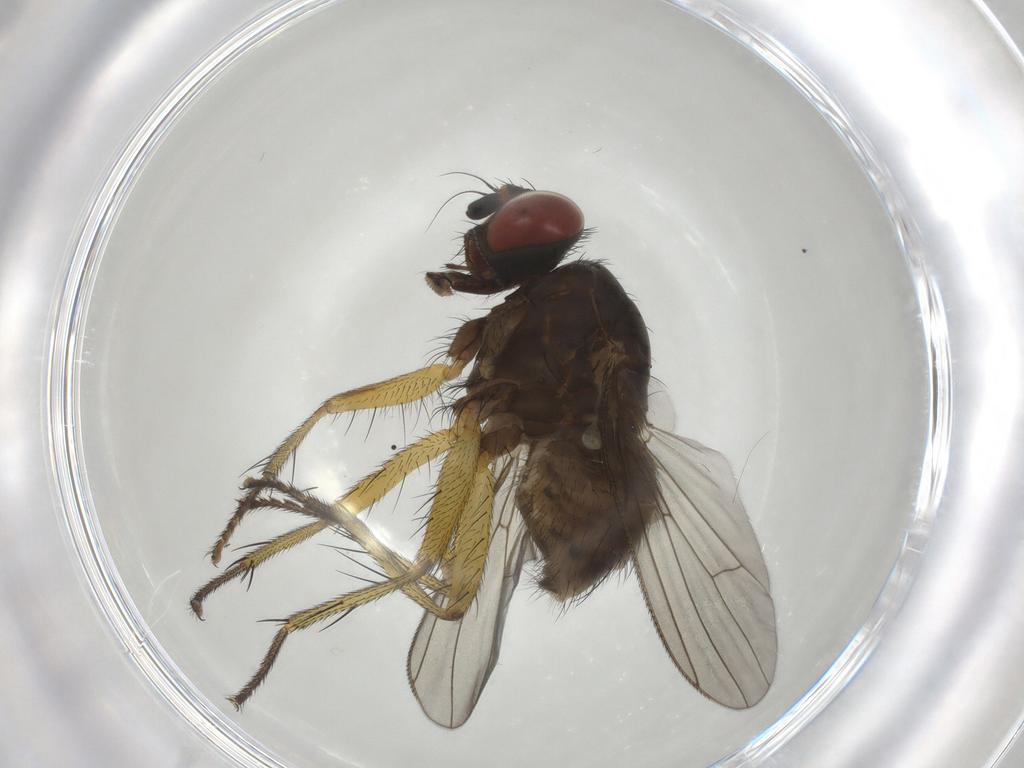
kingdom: Animalia
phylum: Arthropoda
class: Insecta
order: Diptera
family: Muscidae
